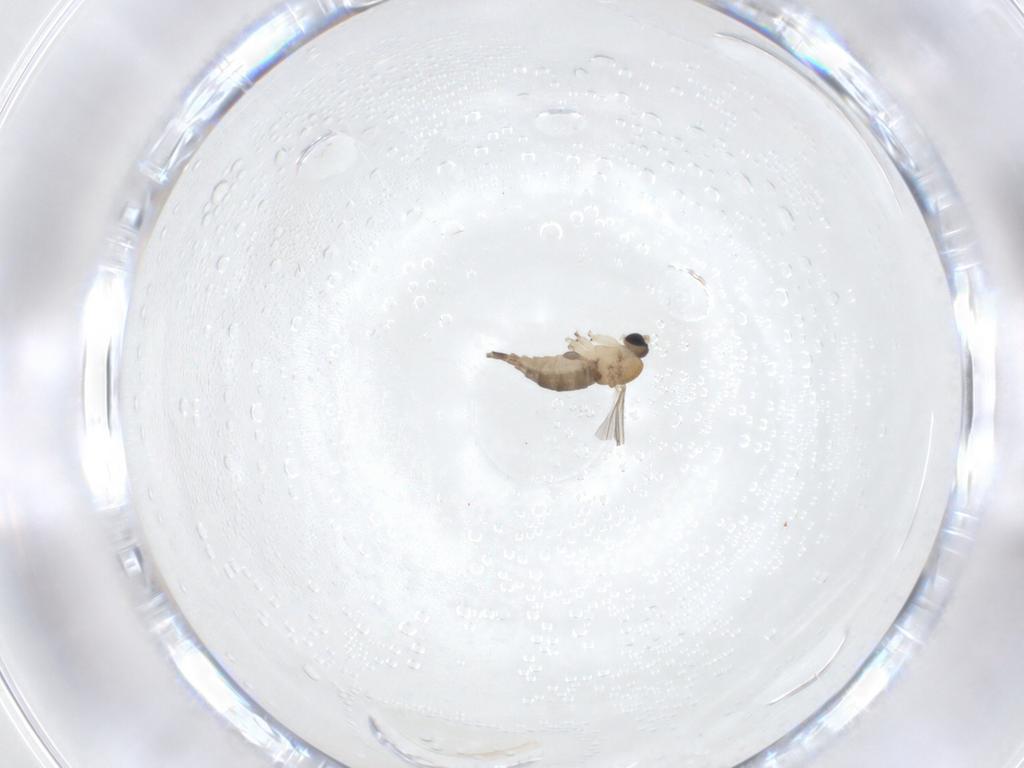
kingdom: Animalia
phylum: Arthropoda
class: Insecta
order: Diptera
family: Sciaridae
